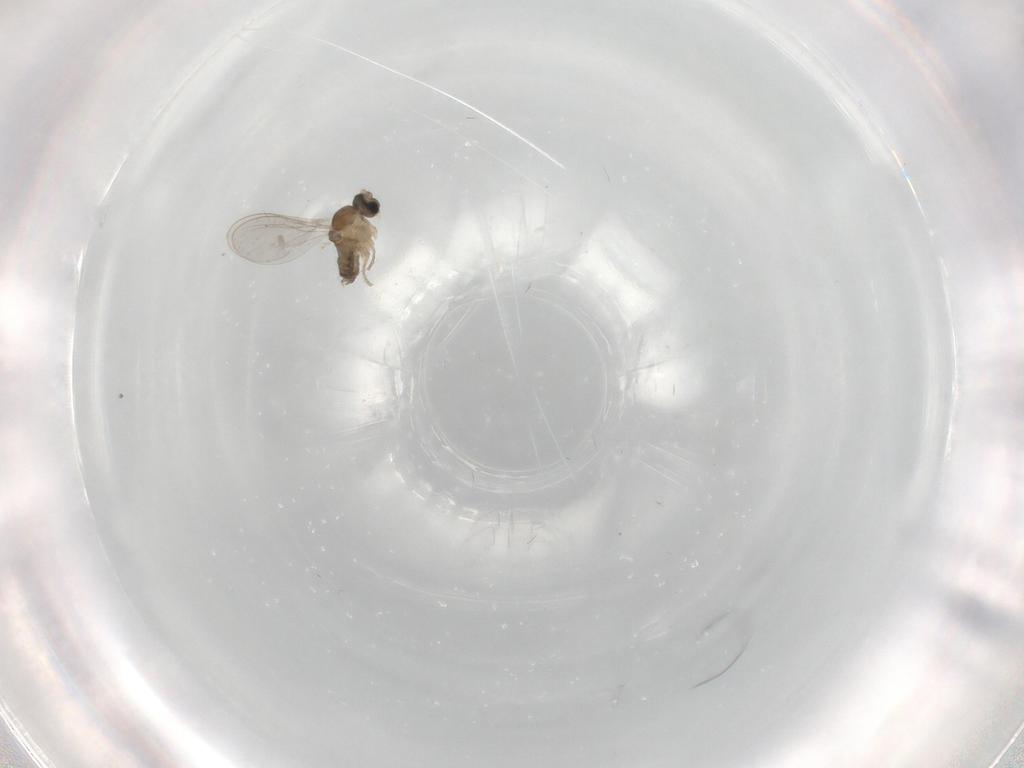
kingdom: Animalia
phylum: Arthropoda
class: Insecta
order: Diptera
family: Cecidomyiidae
